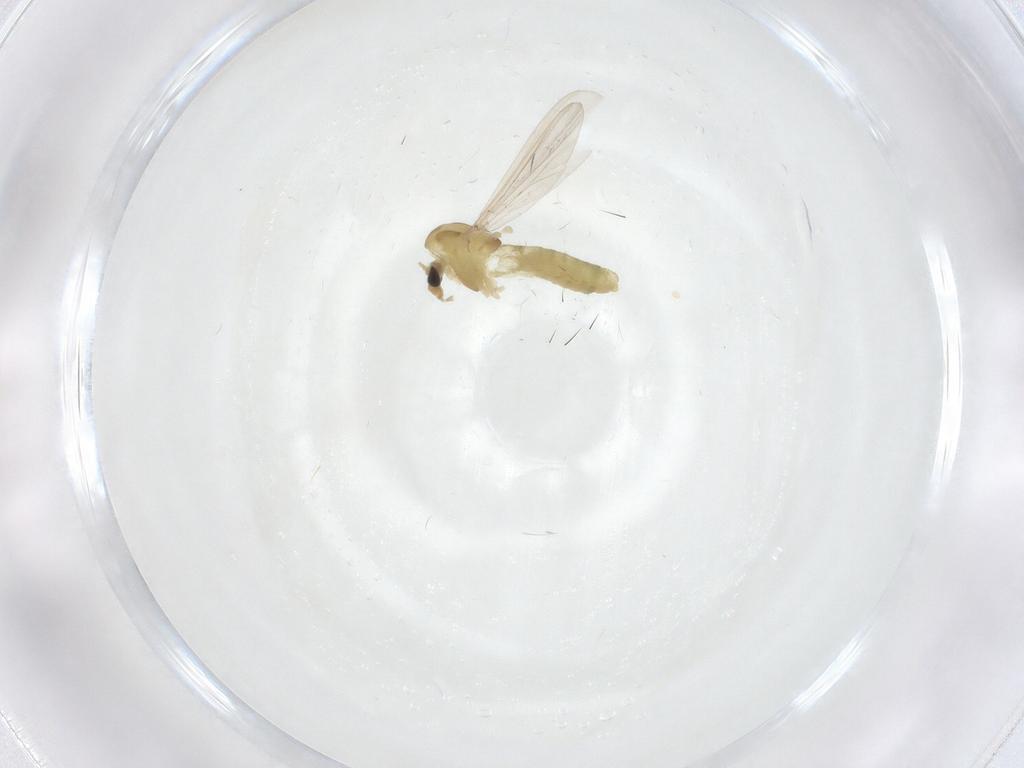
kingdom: Animalia
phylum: Arthropoda
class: Insecta
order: Diptera
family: Chironomidae
